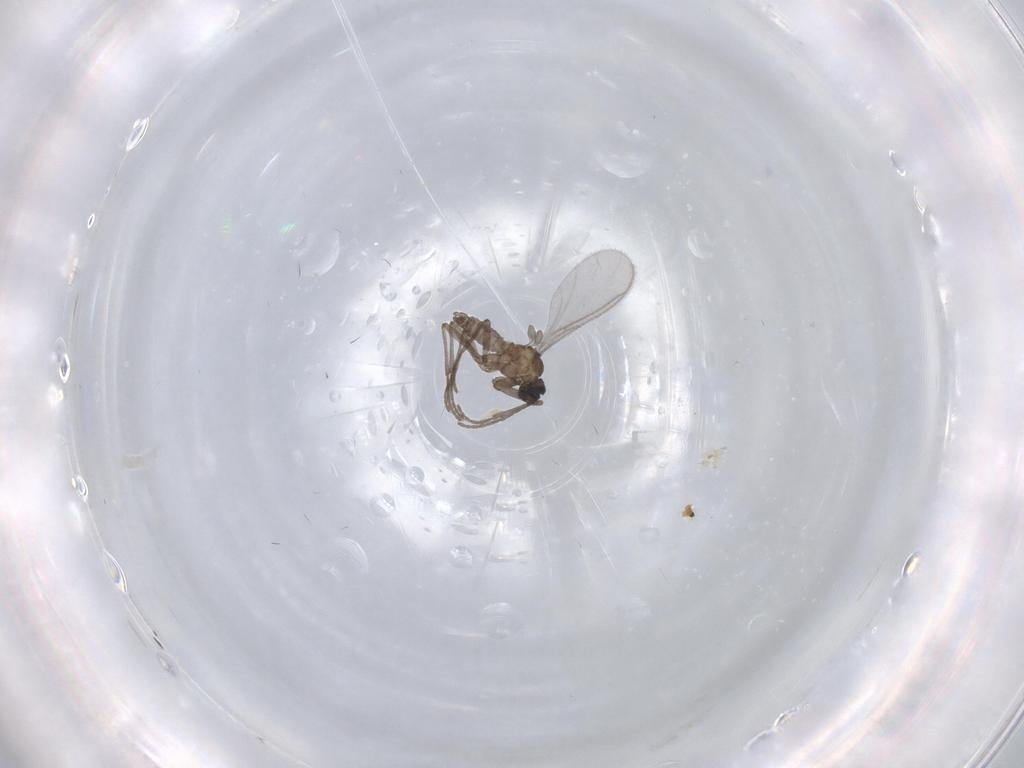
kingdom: Animalia
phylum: Arthropoda
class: Insecta
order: Diptera
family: Sciaridae
